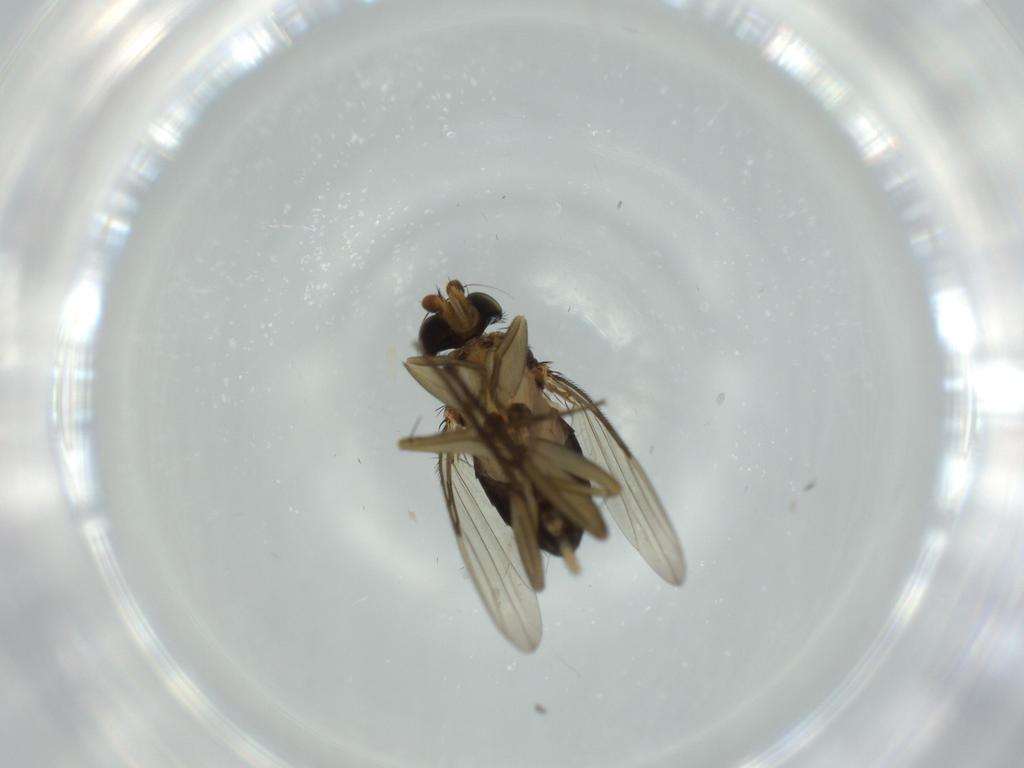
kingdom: Animalia
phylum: Arthropoda
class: Insecta
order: Diptera
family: Phoridae
